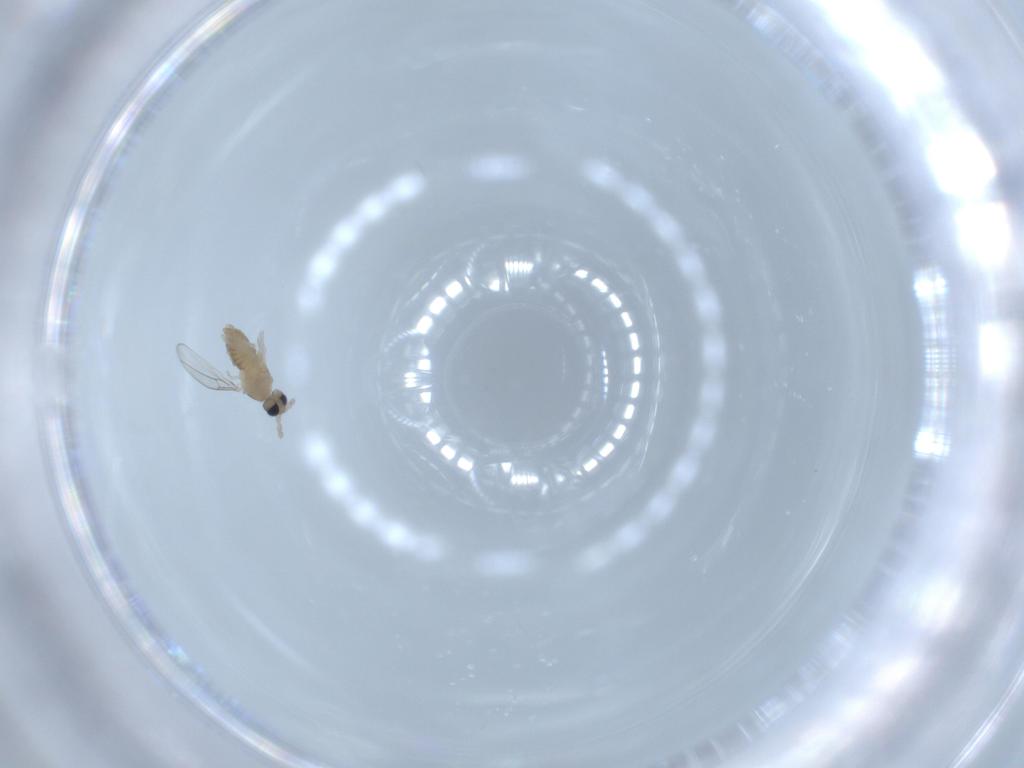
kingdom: Animalia
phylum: Arthropoda
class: Insecta
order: Diptera
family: Cecidomyiidae
